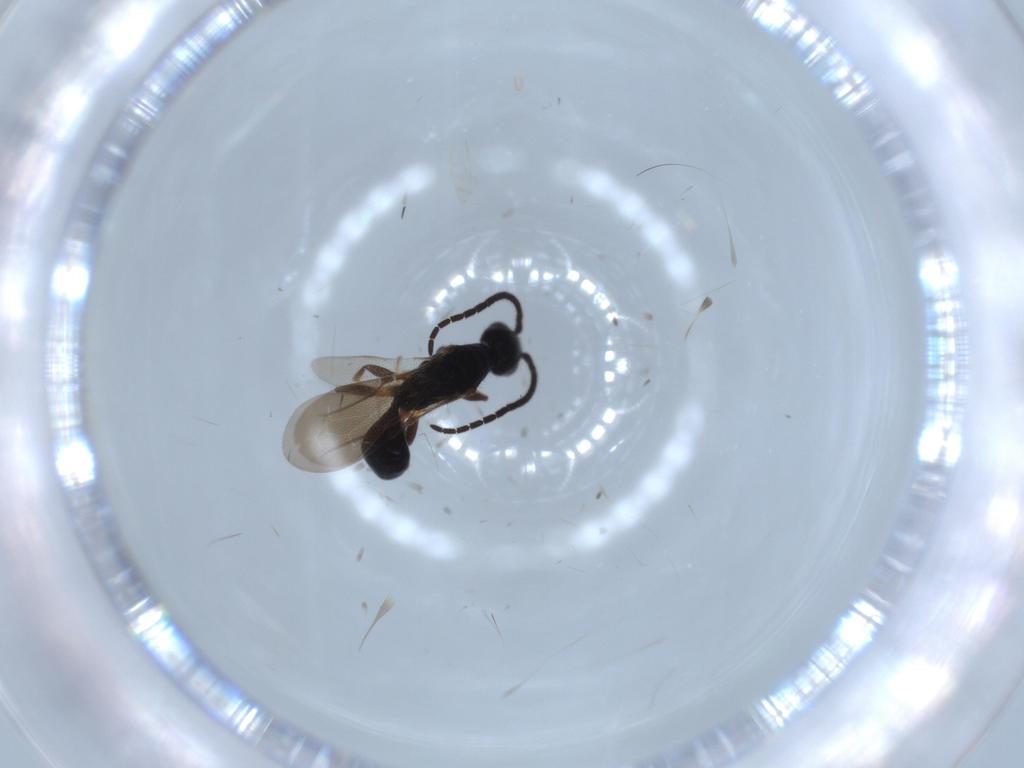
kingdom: Animalia
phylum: Arthropoda
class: Insecta
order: Hymenoptera
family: Bethylidae
